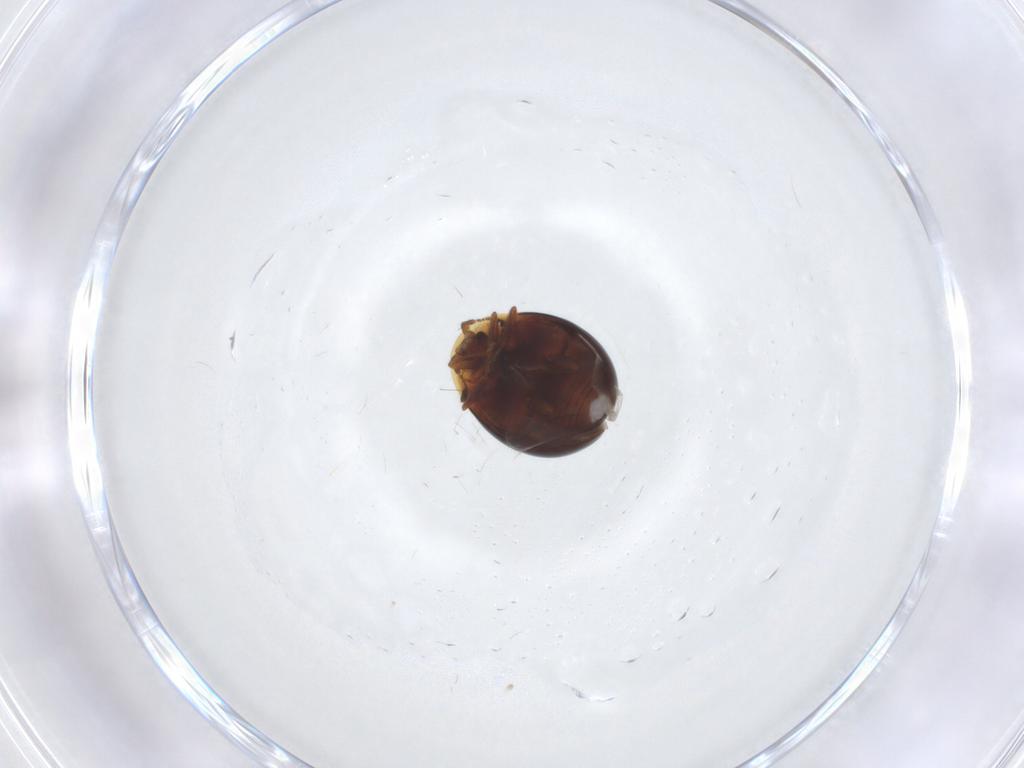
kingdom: Animalia
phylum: Arthropoda
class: Insecta
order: Coleoptera
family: Corylophidae
